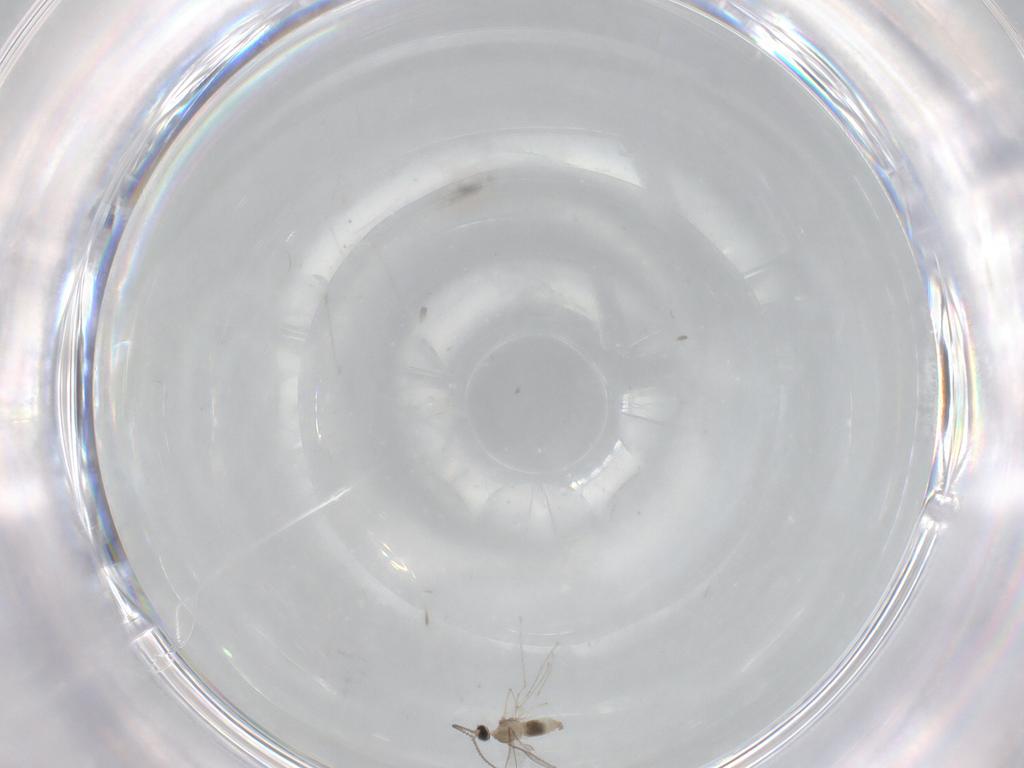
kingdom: Animalia
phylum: Arthropoda
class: Insecta
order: Diptera
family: Cecidomyiidae
